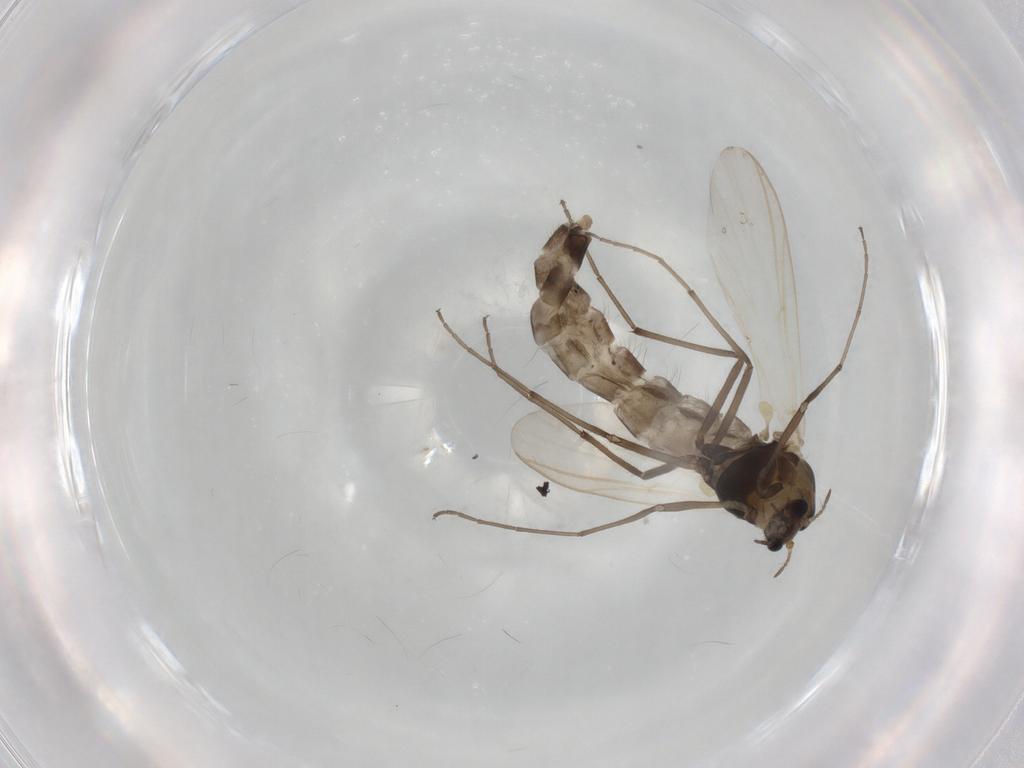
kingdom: Animalia
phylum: Arthropoda
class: Insecta
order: Diptera
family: Chironomidae
